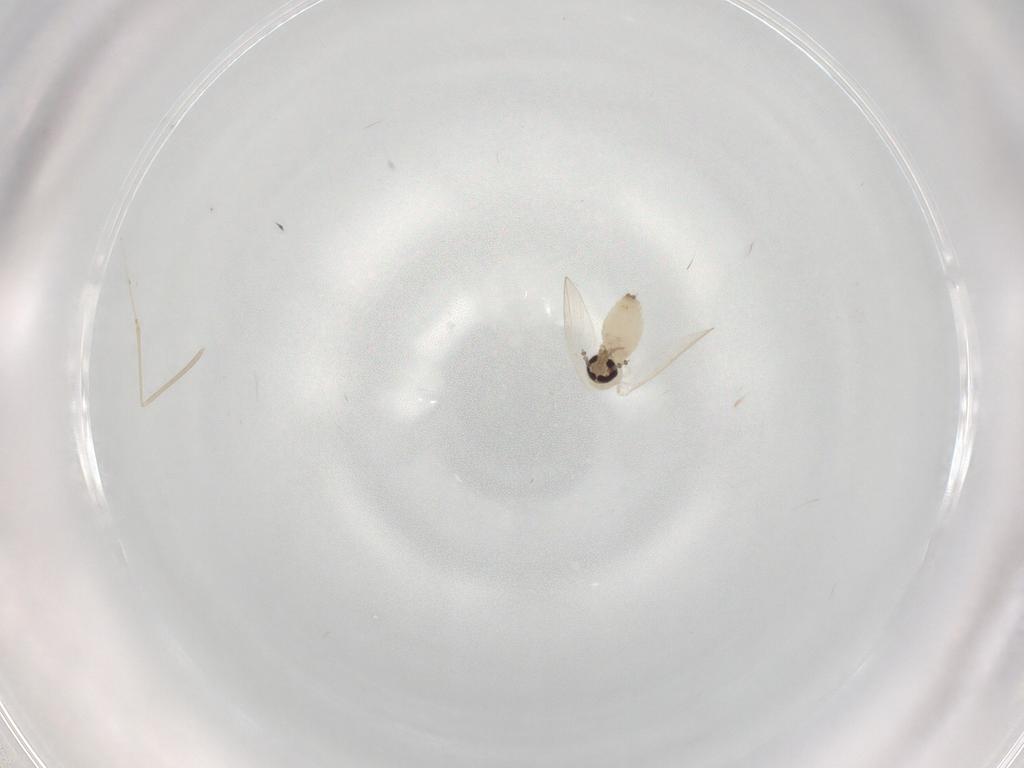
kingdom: Animalia
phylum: Arthropoda
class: Insecta
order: Diptera
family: Psychodidae
